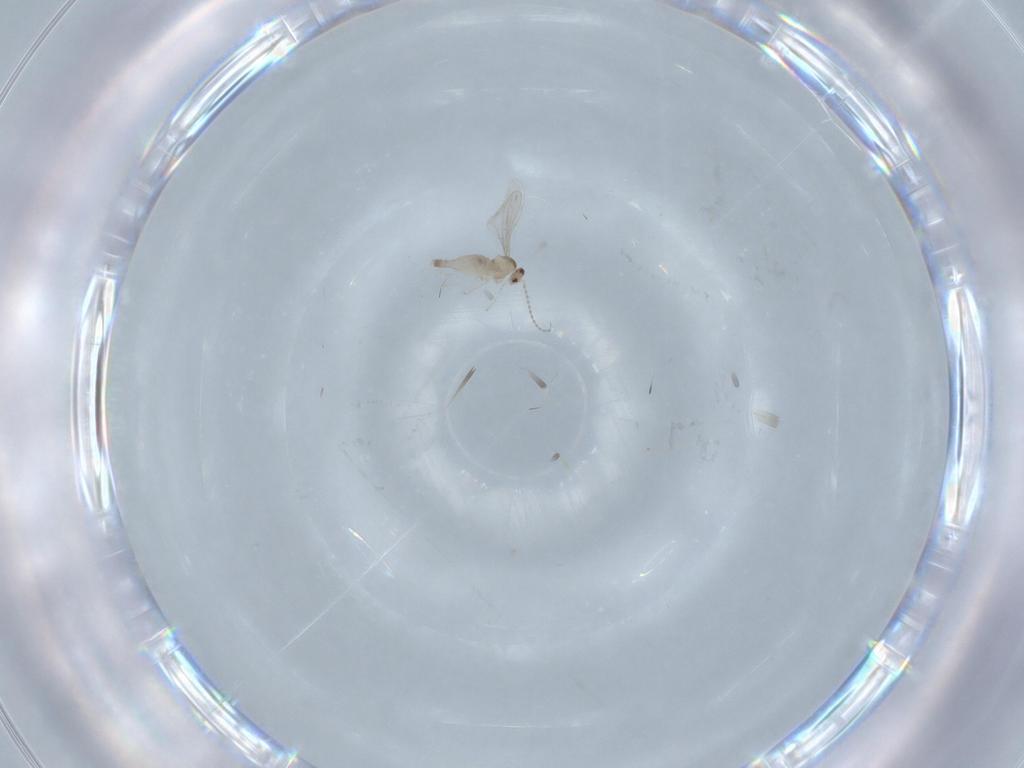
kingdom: Animalia
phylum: Arthropoda
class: Insecta
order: Diptera
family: Cecidomyiidae
